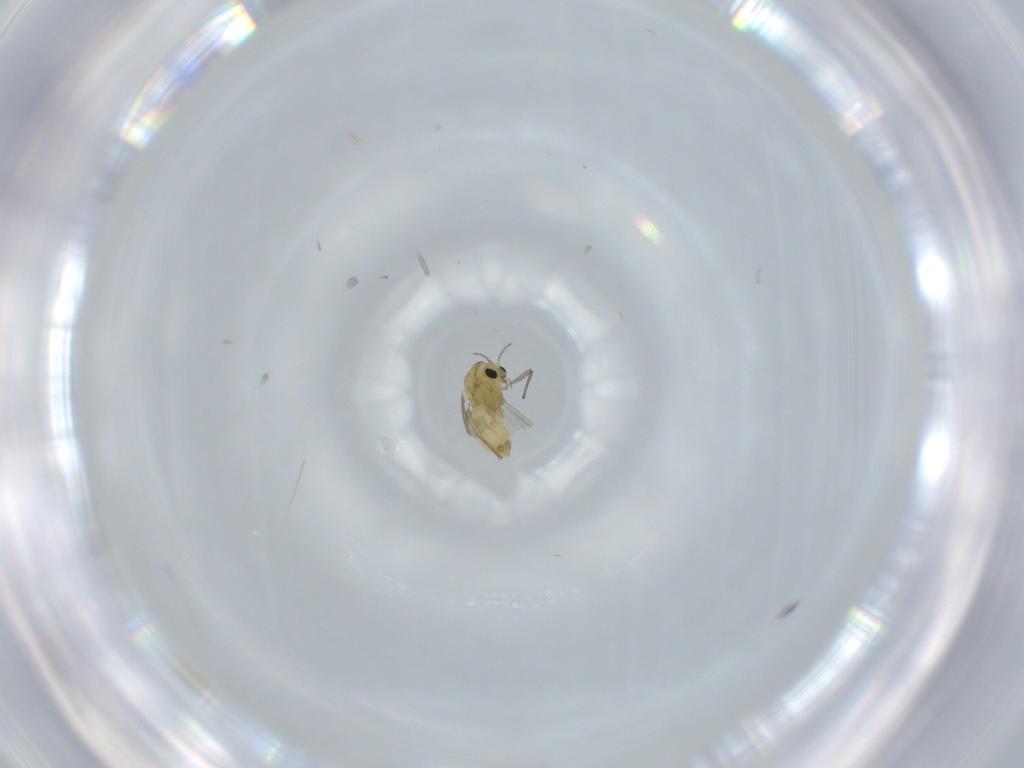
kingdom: Animalia
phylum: Arthropoda
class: Insecta
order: Diptera
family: Chironomidae
